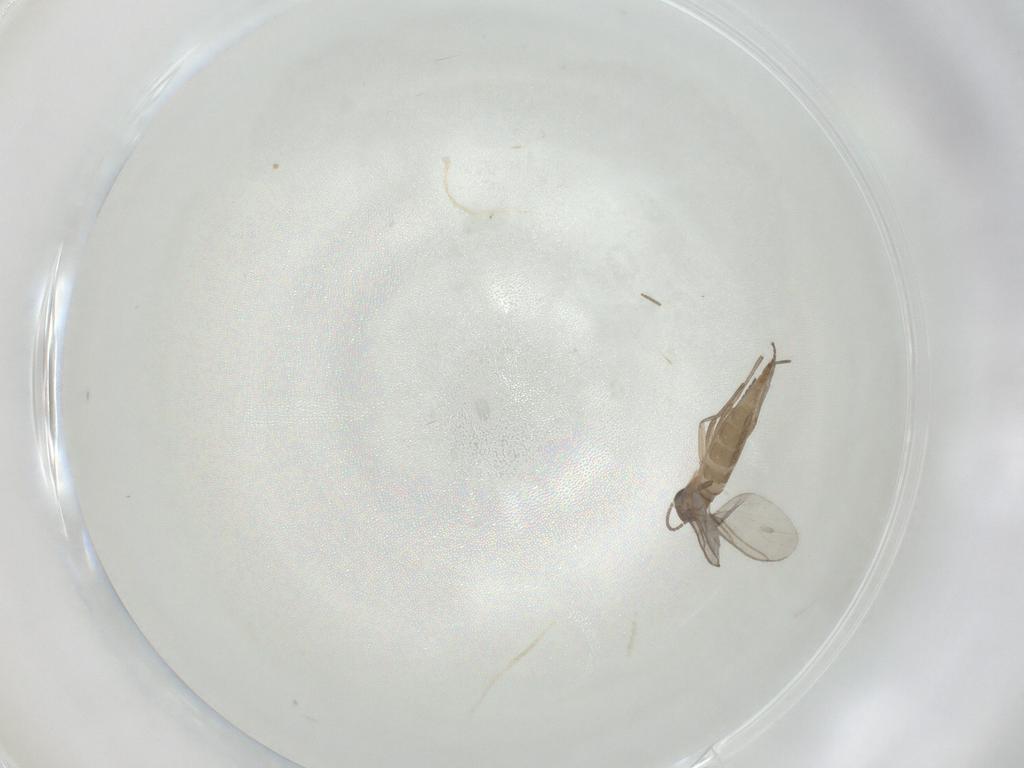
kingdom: Animalia
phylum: Arthropoda
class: Insecta
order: Diptera
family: Sciaridae
